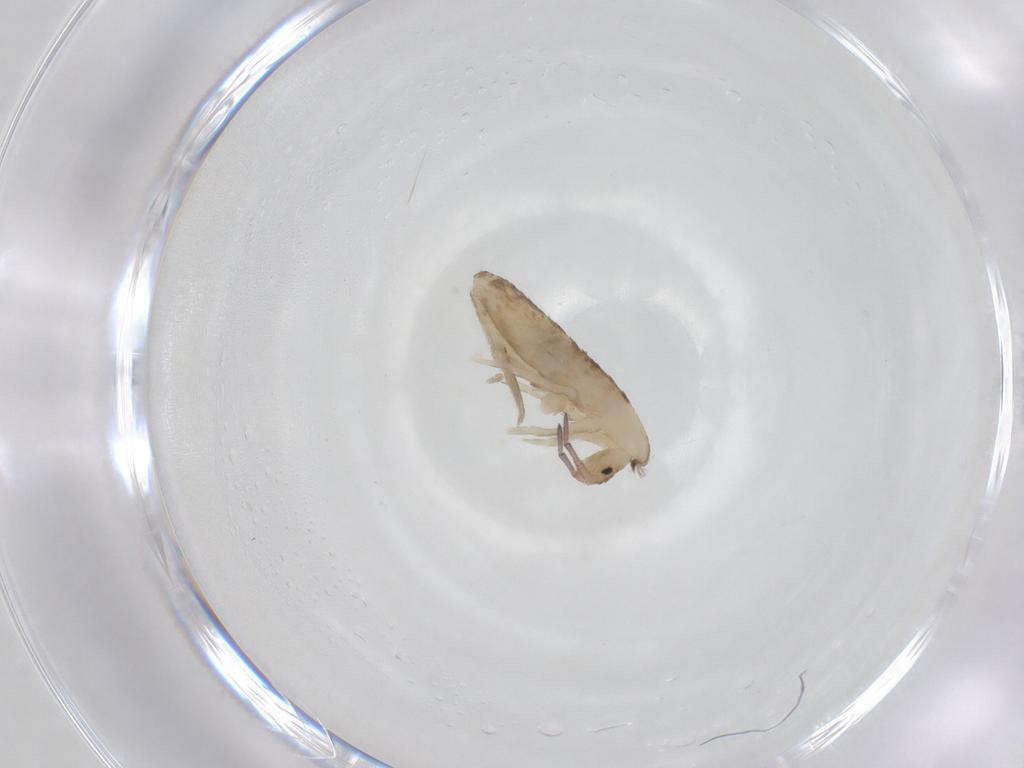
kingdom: Animalia
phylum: Arthropoda
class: Collembola
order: Entomobryomorpha
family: Entomobryidae
